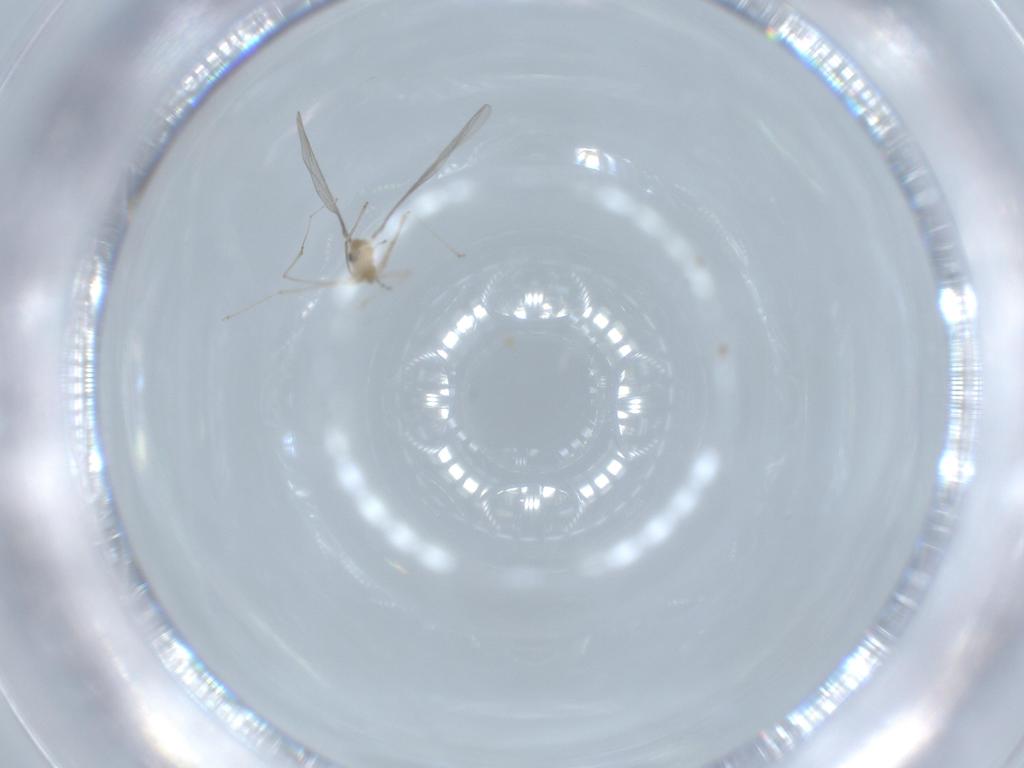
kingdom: Animalia
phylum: Arthropoda
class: Insecta
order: Diptera
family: Cecidomyiidae
